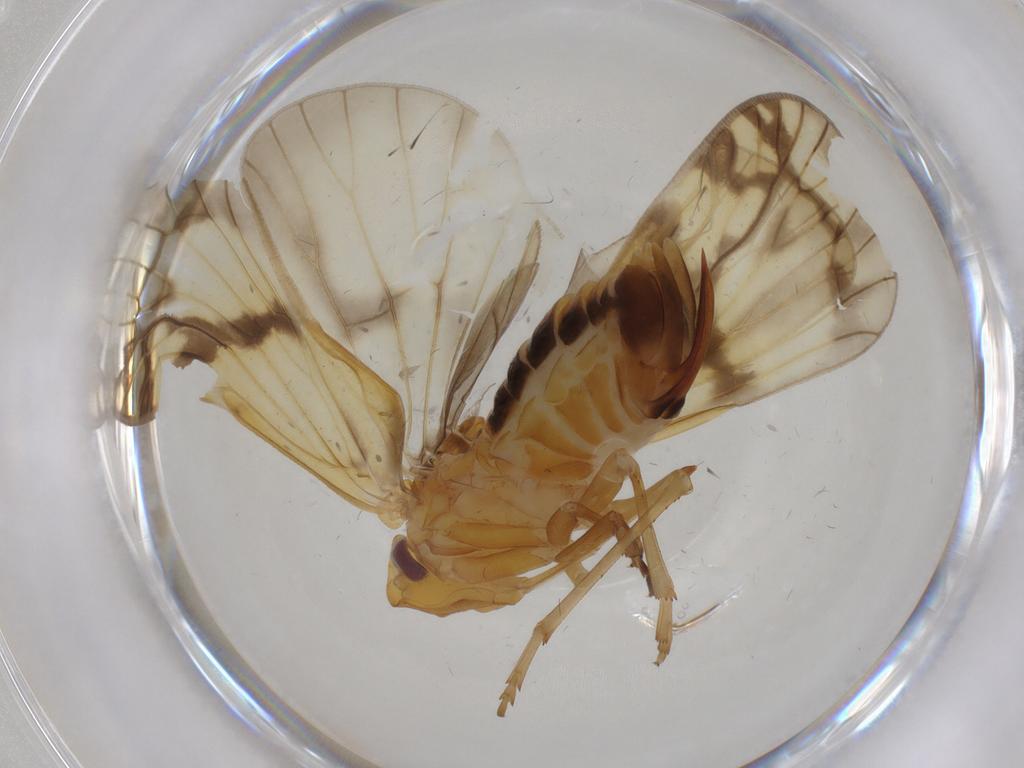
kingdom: Animalia
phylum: Arthropoda
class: Insecta
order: Hemiptera
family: Cixiidae
